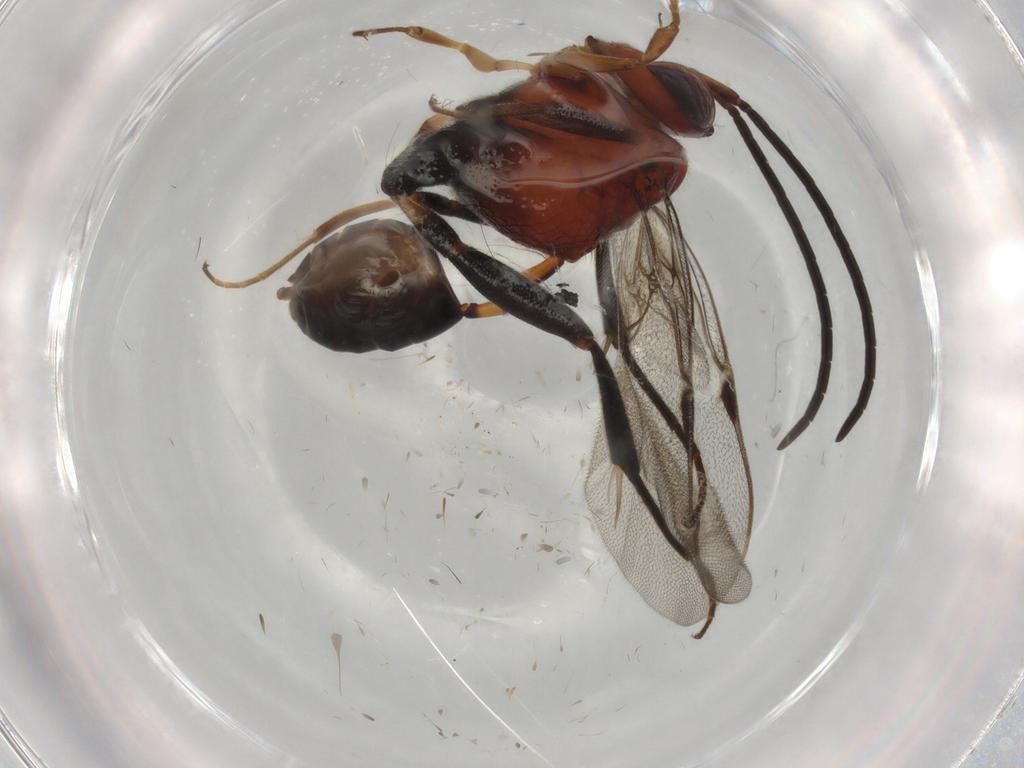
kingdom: Animalia
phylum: Arthropoda
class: Insecta
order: Hymenoptera
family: Evaniidae
